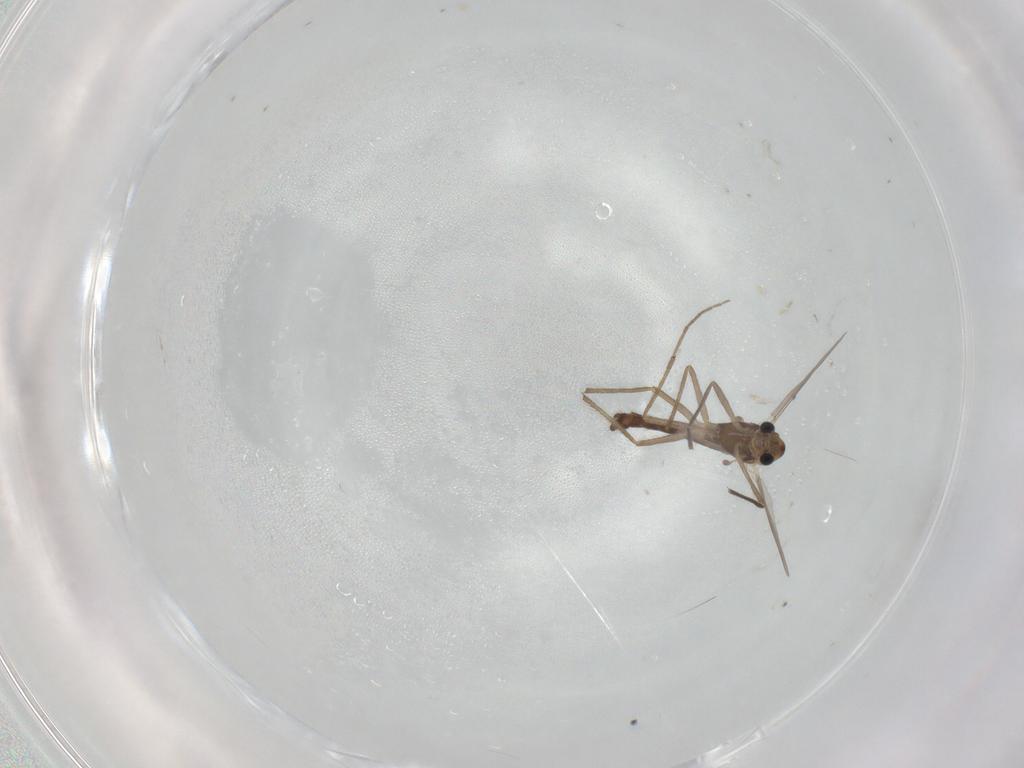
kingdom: Animalia
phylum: Arthropoda
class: Insecta
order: Diptera
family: Chironomidae
